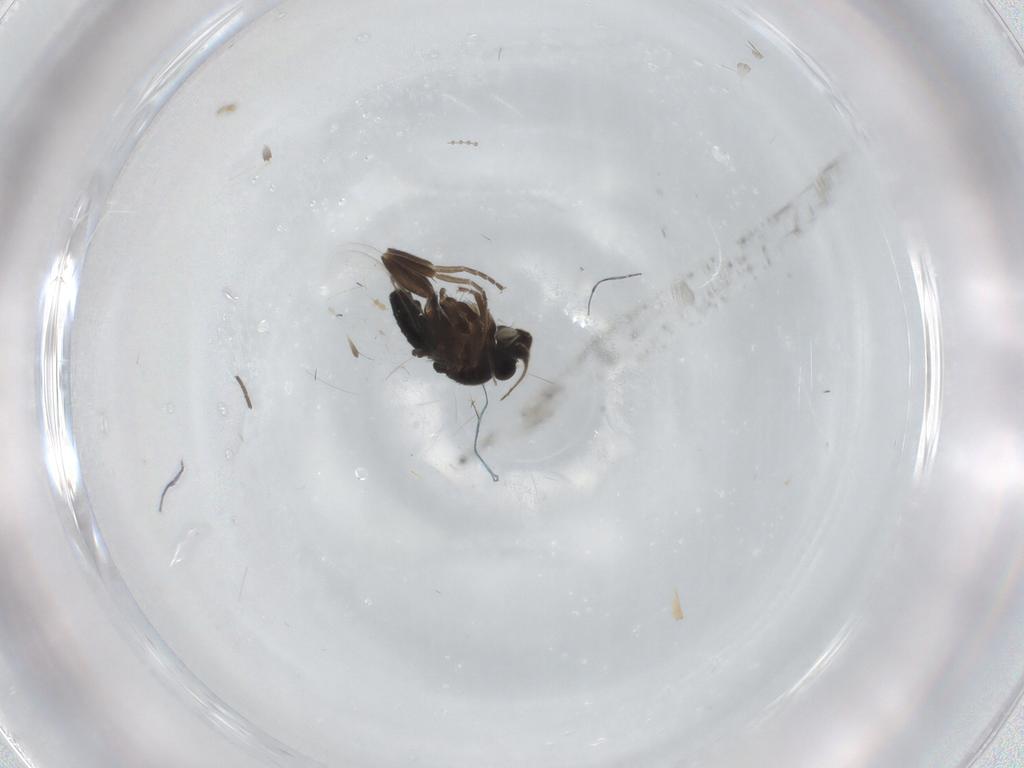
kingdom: Animalia
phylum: Arthropoda
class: Insecta
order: Diptera
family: Phoridae
